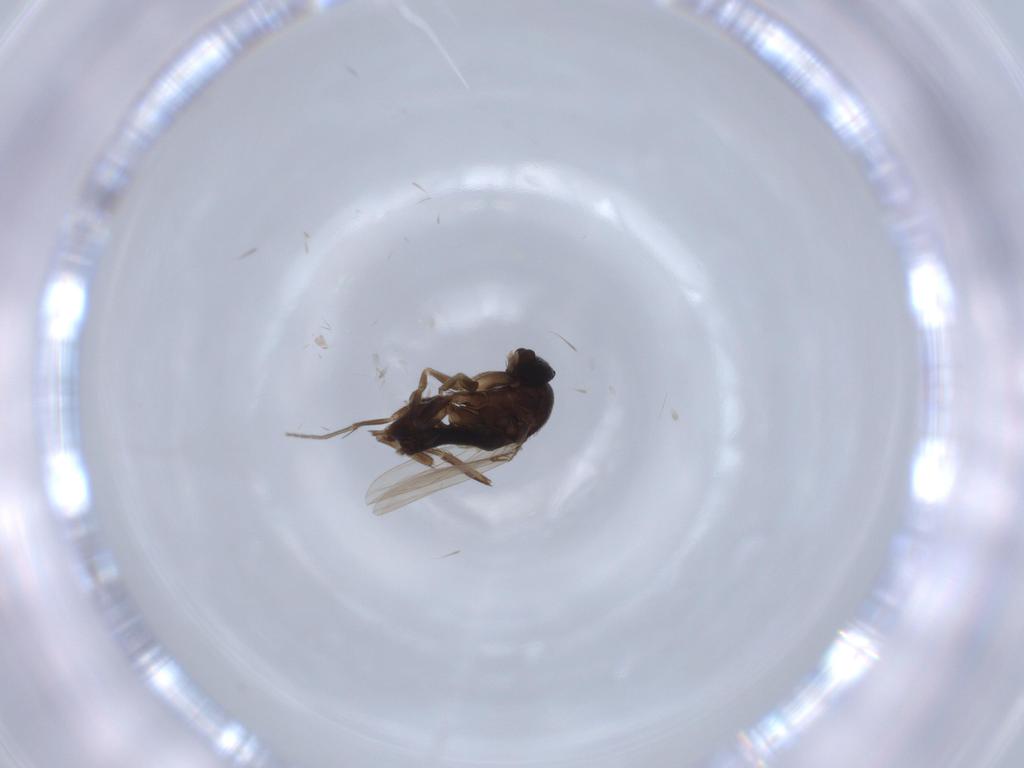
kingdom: Animalia
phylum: Arthropoda
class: Insecta
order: Diptera
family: Phoridae
